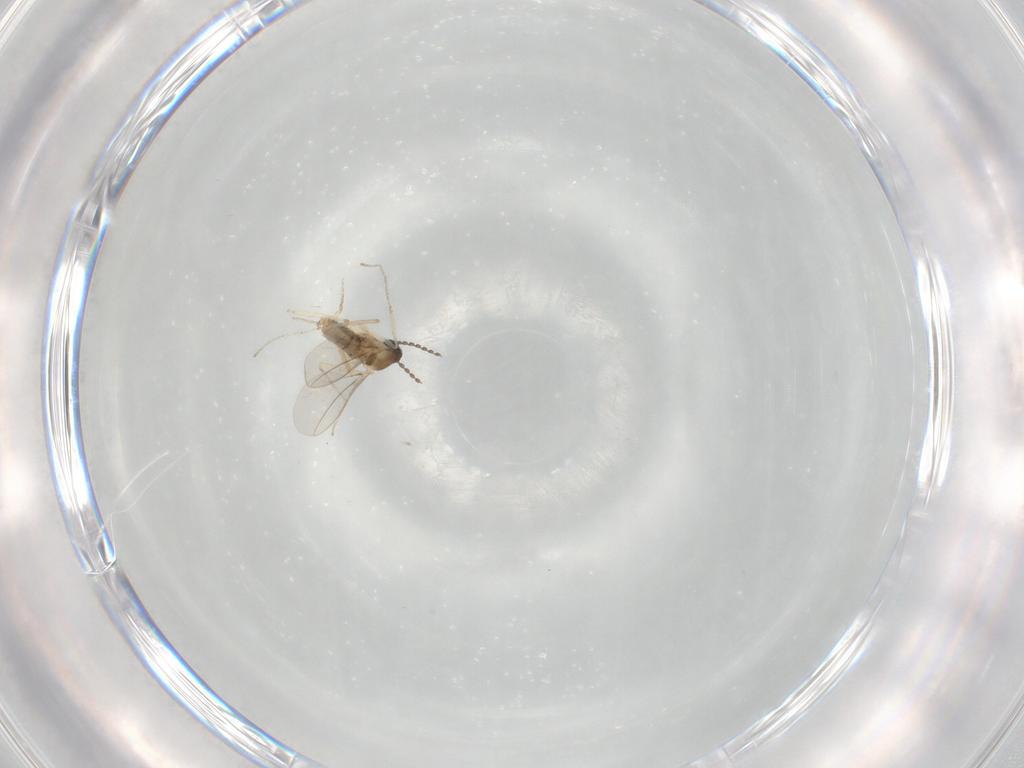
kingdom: Animalia
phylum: Arthropoda
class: Insecta
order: Diptera
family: Cecidomyiidae
